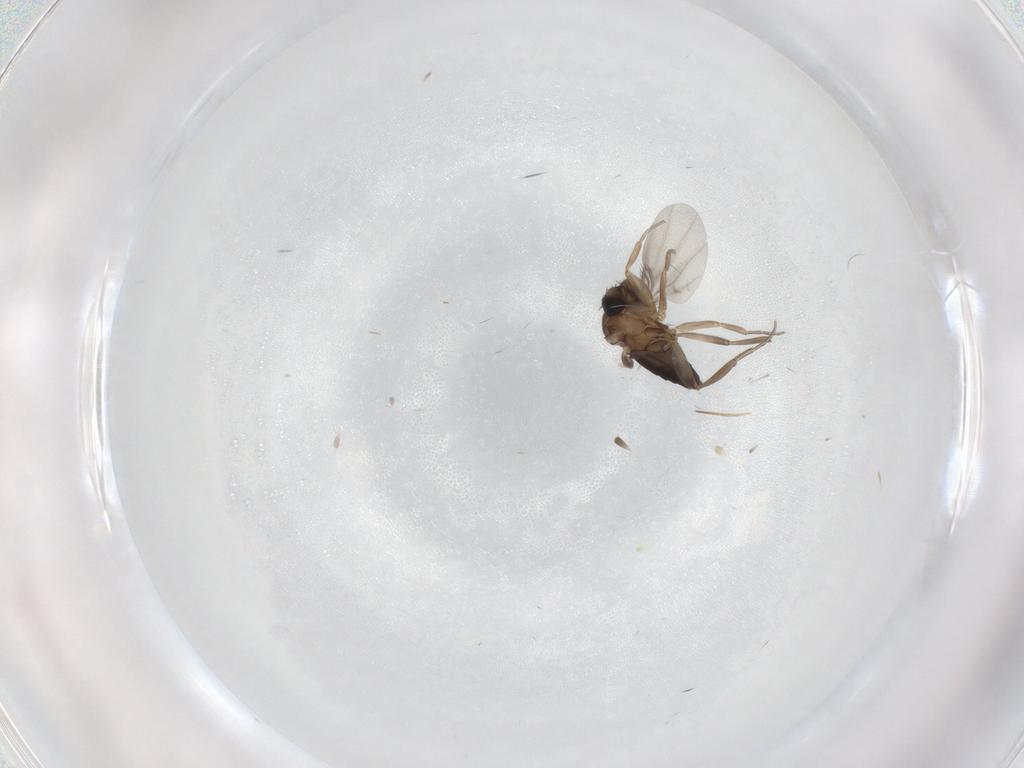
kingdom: Animalia
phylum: Arthropoda
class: Insecta
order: Diptera
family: Phoridae
